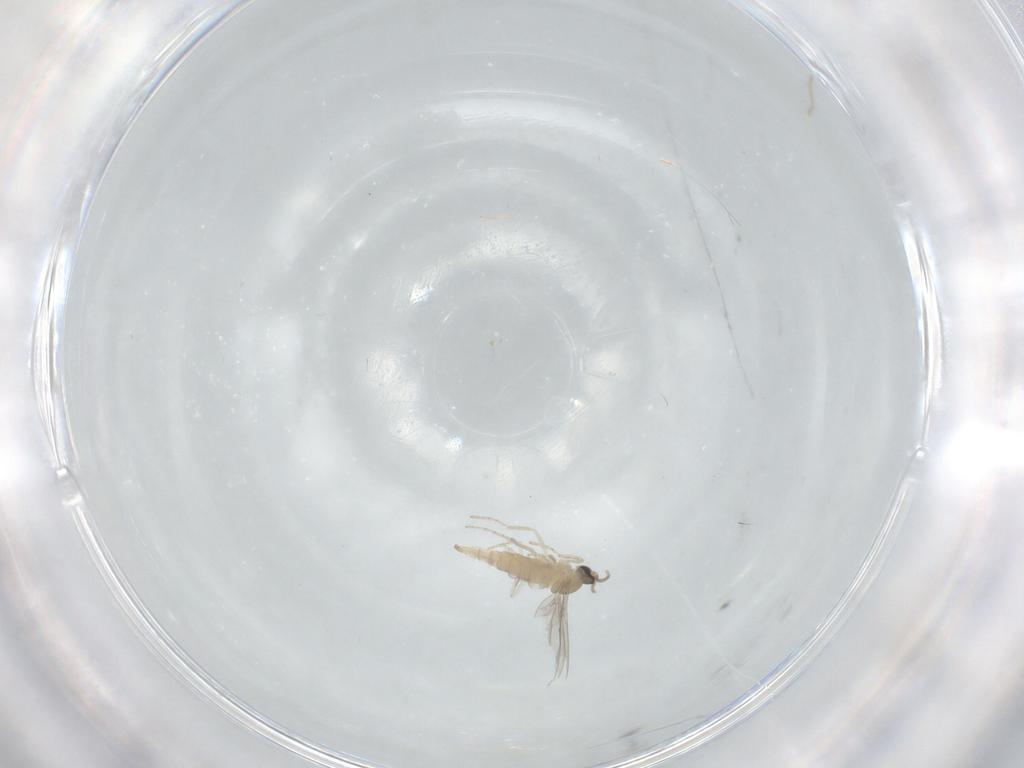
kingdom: Animalia
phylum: Arthropoda
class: Insecta
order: Diptera
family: Cecidomyiidae
